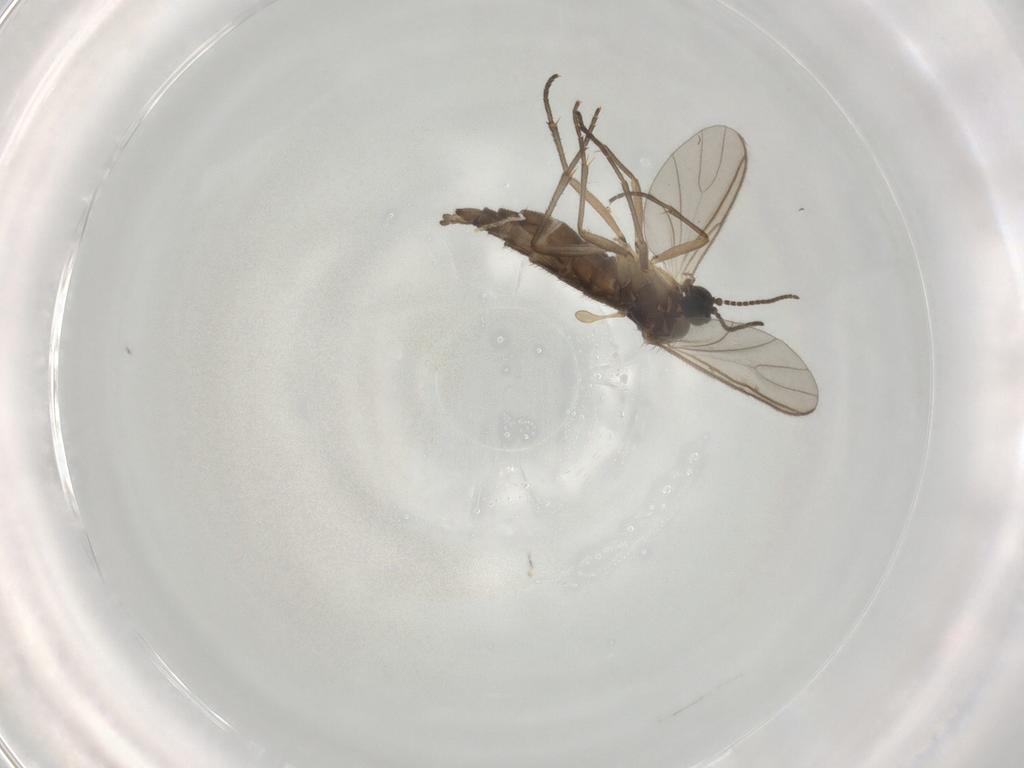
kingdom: Animalia
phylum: Arthropoda
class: Insecta
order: Diptera
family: Sciaridae
